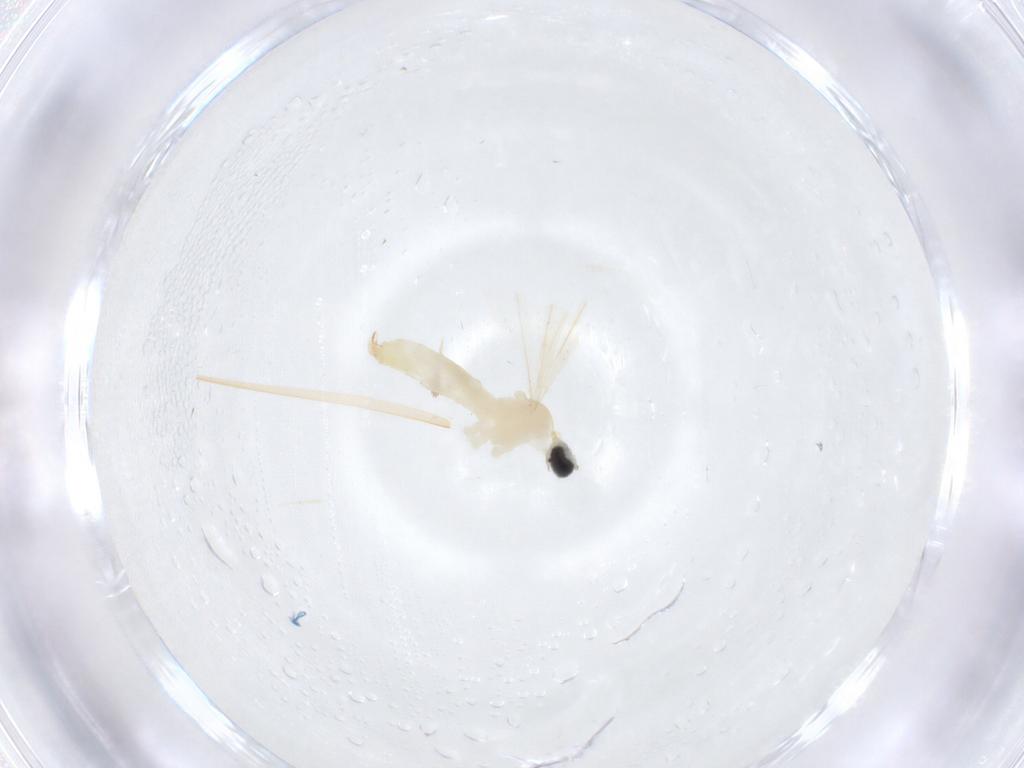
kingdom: Animalia
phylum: Arthropoda
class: Insecta
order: Diptera
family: Cecidomyiidae
